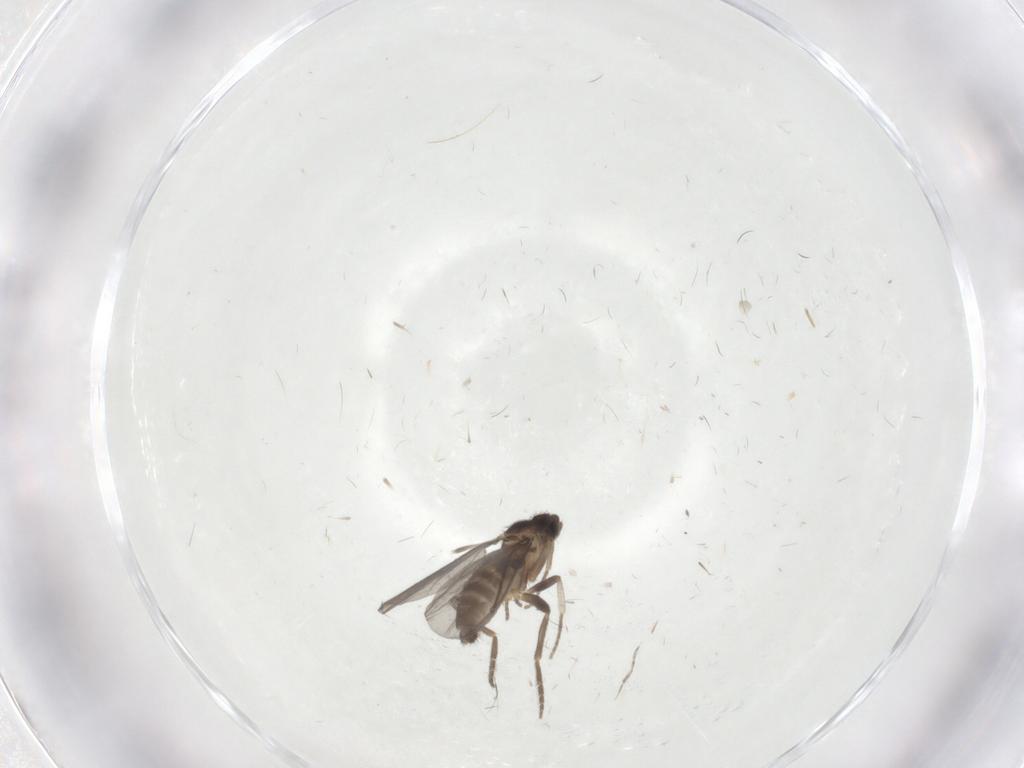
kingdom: Animalia
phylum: Arthropoda
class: Insecta
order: Diptera
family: Phoridae
